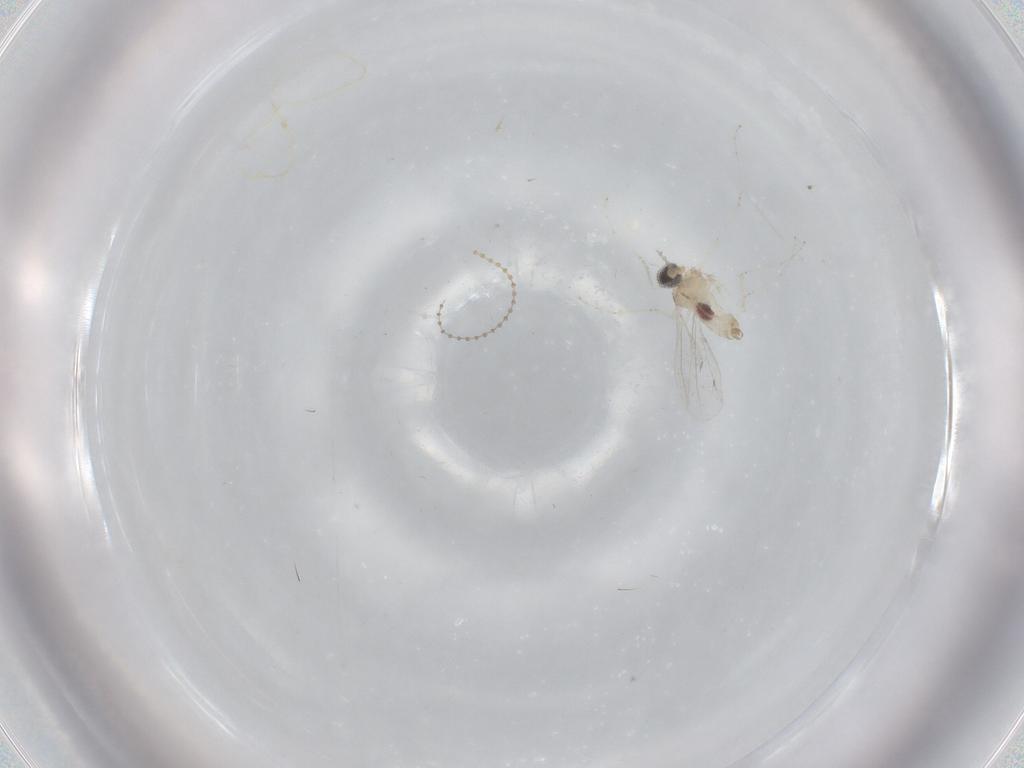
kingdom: Animalia
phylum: Arthropoda
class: Insecta
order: Diptera
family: Cecidomyiidae
